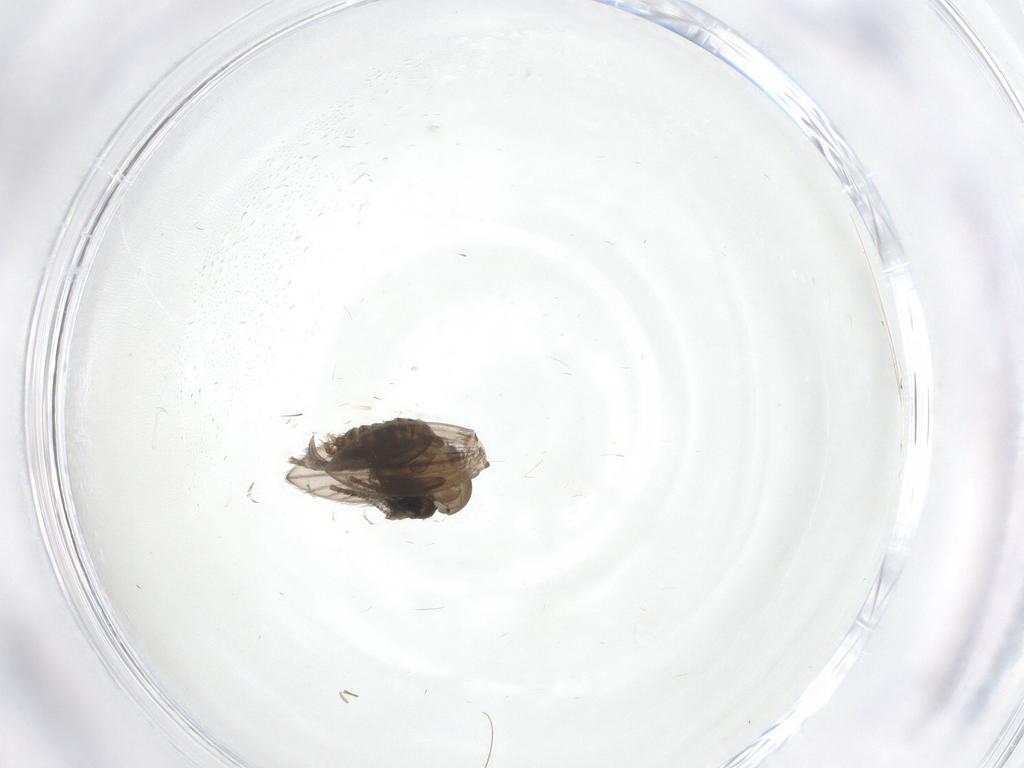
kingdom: Animalia
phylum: Arthropoda
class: Insecta
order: Diptera
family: Psychodidae
